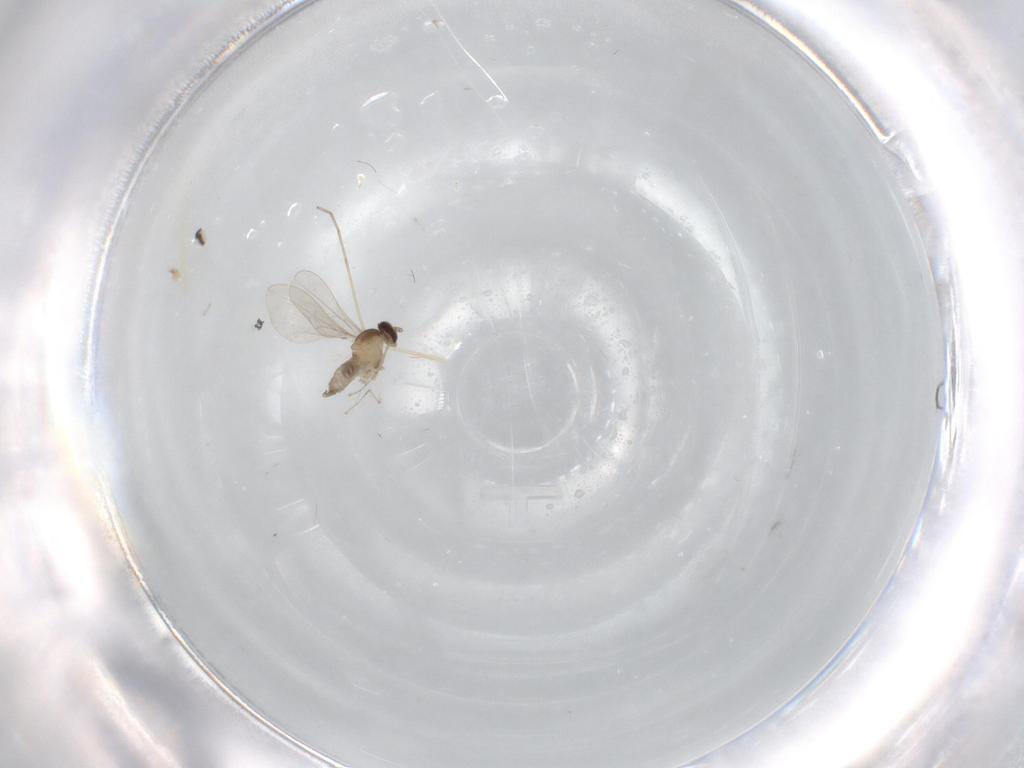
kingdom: Animalia
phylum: Arthropoda
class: Insecta
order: Diptera
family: Cecidomyiidae
